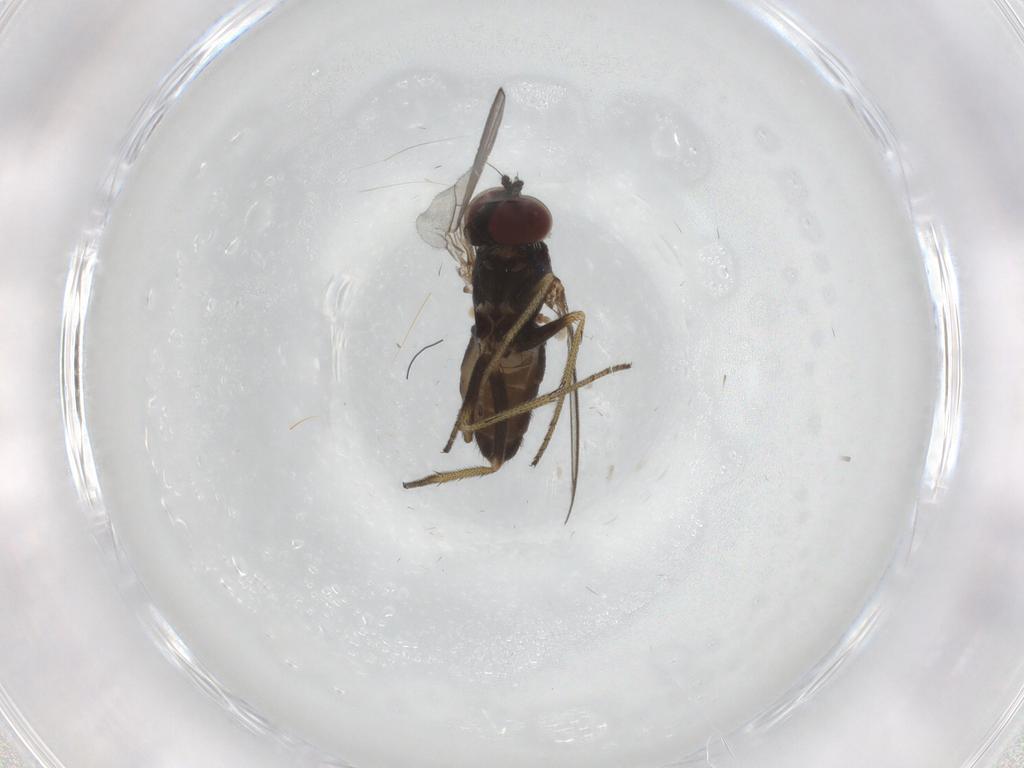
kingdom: Animalia
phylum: Arthropoda
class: Insecta
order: Diptera
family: Dolichopodidae
